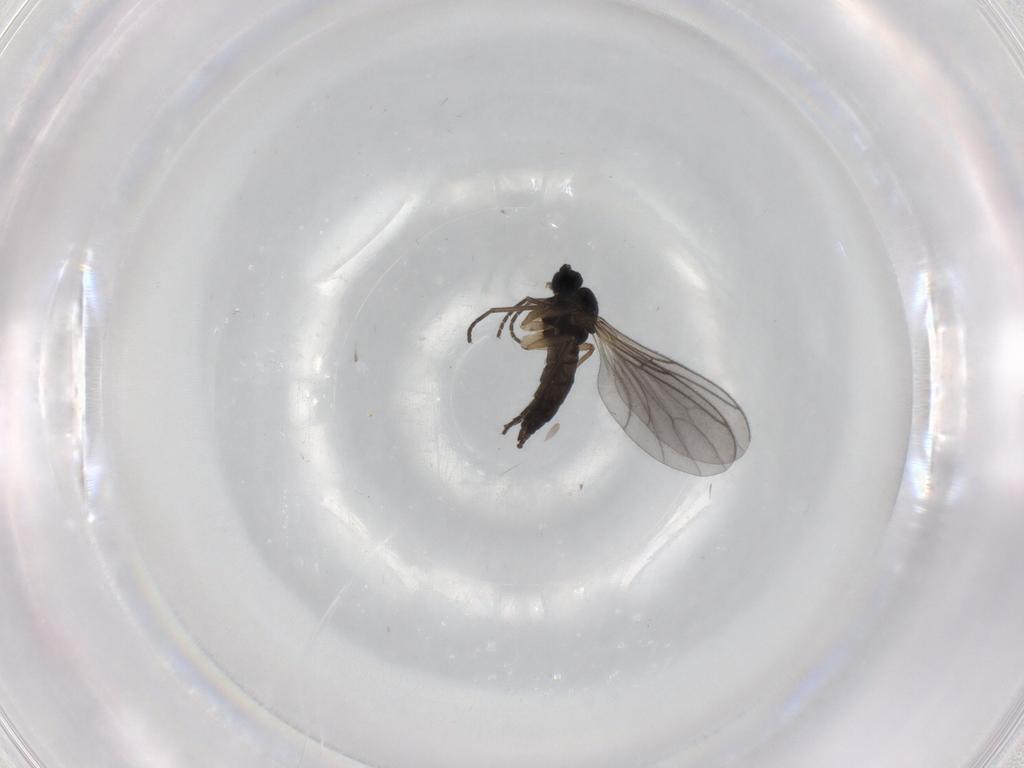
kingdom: Animalia
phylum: Arthropoda
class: Insecta
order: Diptera
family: Sciaridae
